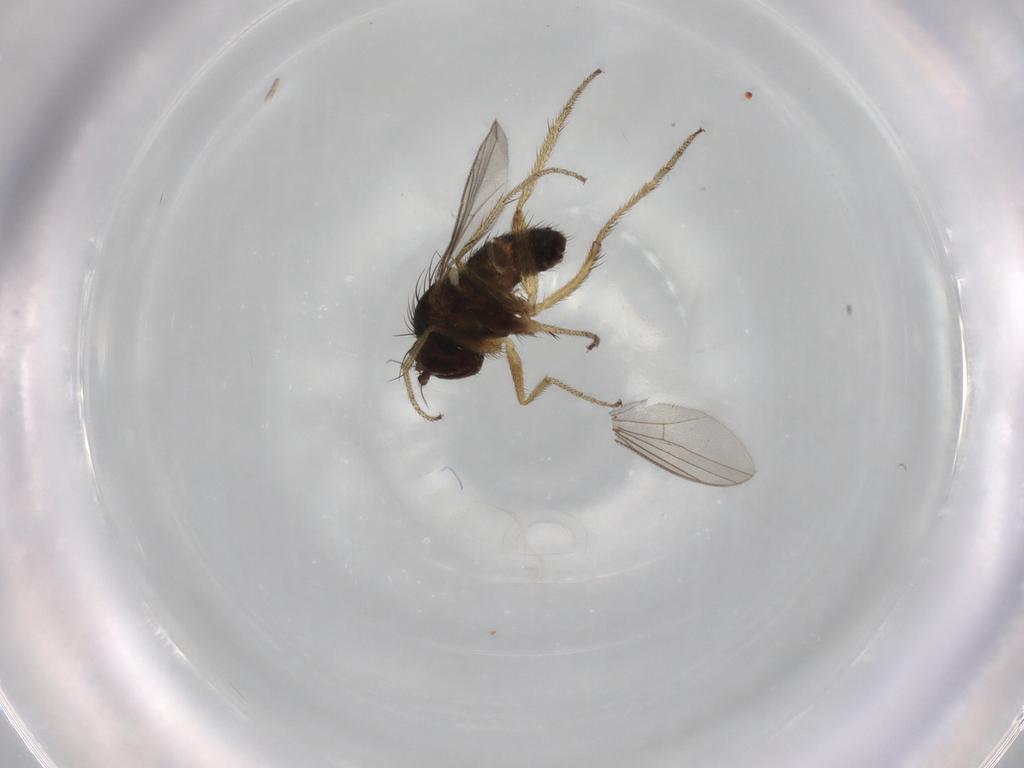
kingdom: Animalia
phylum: Arthropoda
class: Insecta
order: Diptera
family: Dolichopodidae
